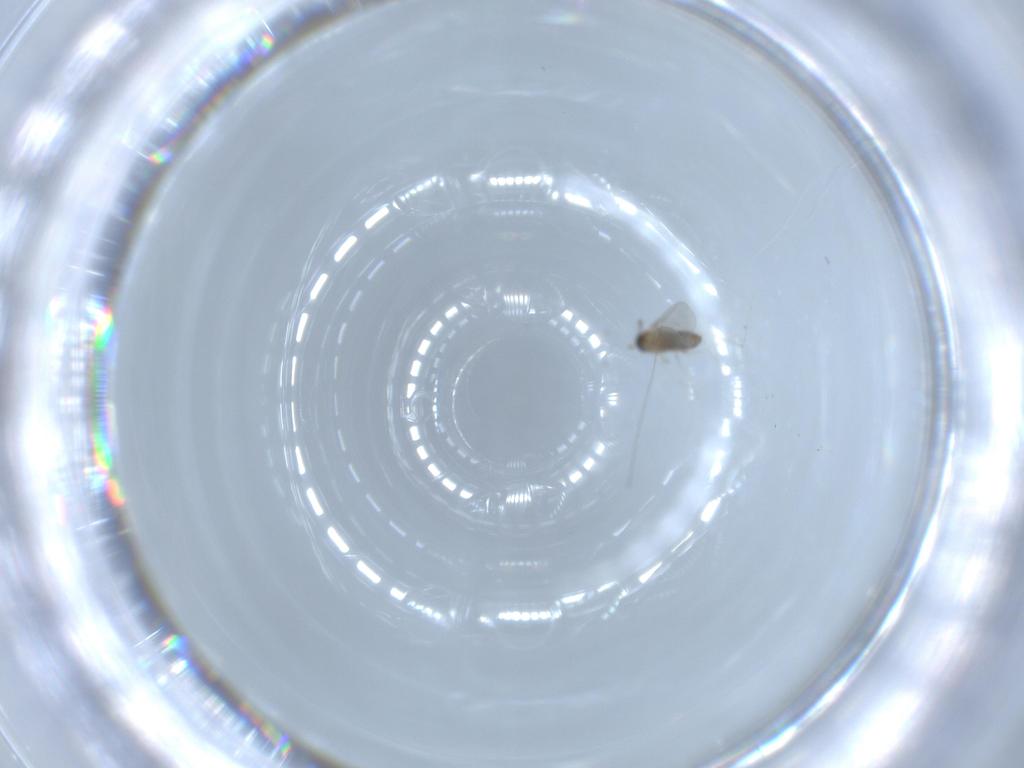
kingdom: Animalia
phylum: Arthropoda
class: Insecta
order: Diptera
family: Cecidomyiidae
